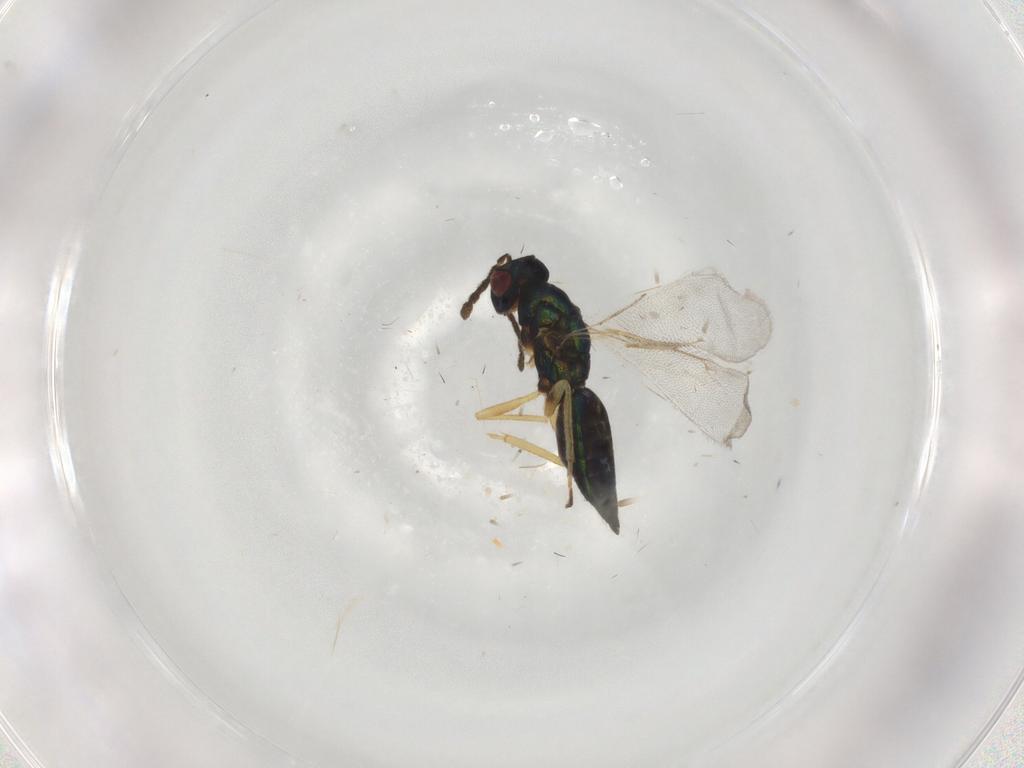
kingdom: Animalia
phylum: Arthropoda
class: Insecta
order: Hymenoptera
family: Eulophidae
